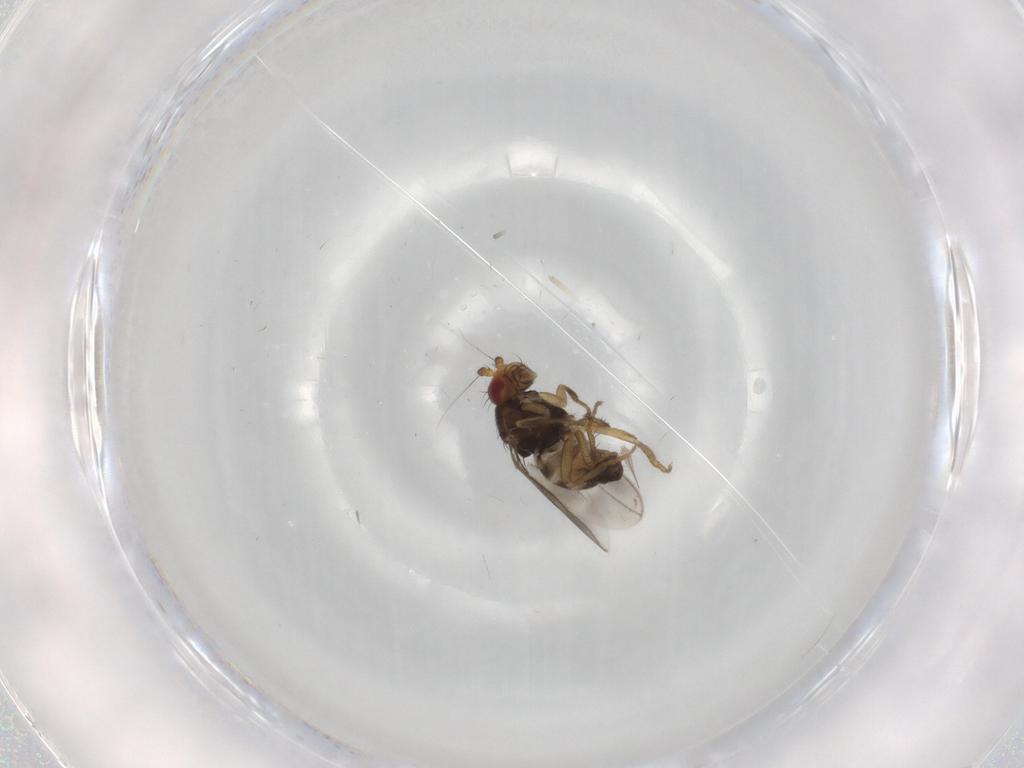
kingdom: Animalia
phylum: Arthropoda
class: Insecta
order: Diptera
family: Sphaeroceridae
